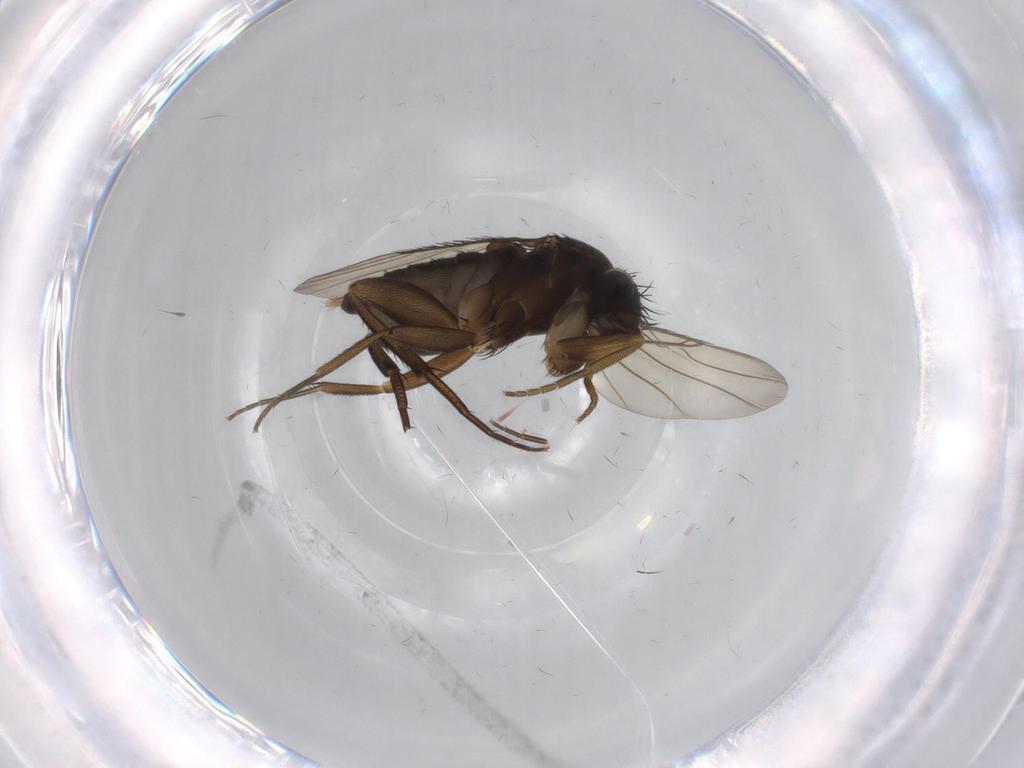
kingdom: Animalia
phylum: Arthropoda
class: Insecta
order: Diptera
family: Phoridae
